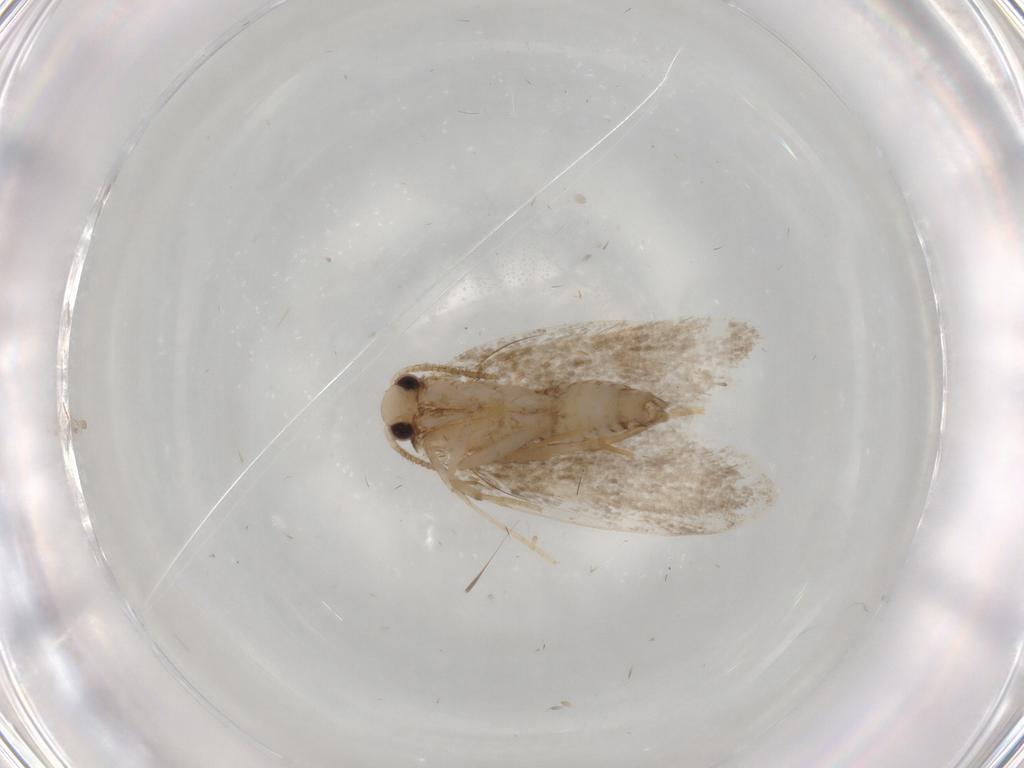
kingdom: Animalia
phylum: Arthropoda
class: Insecta
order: Lepidoptera
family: Psychidae
